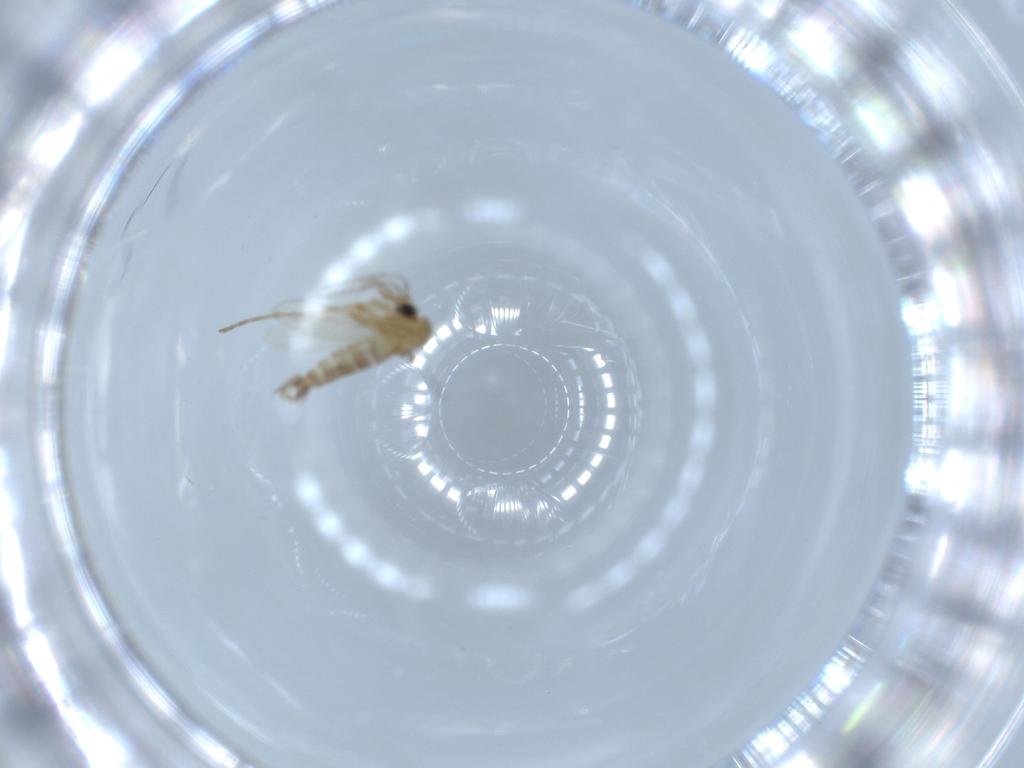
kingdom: Animalia
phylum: Arthropoda
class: Insecta
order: Diptera
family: Psychodidae
